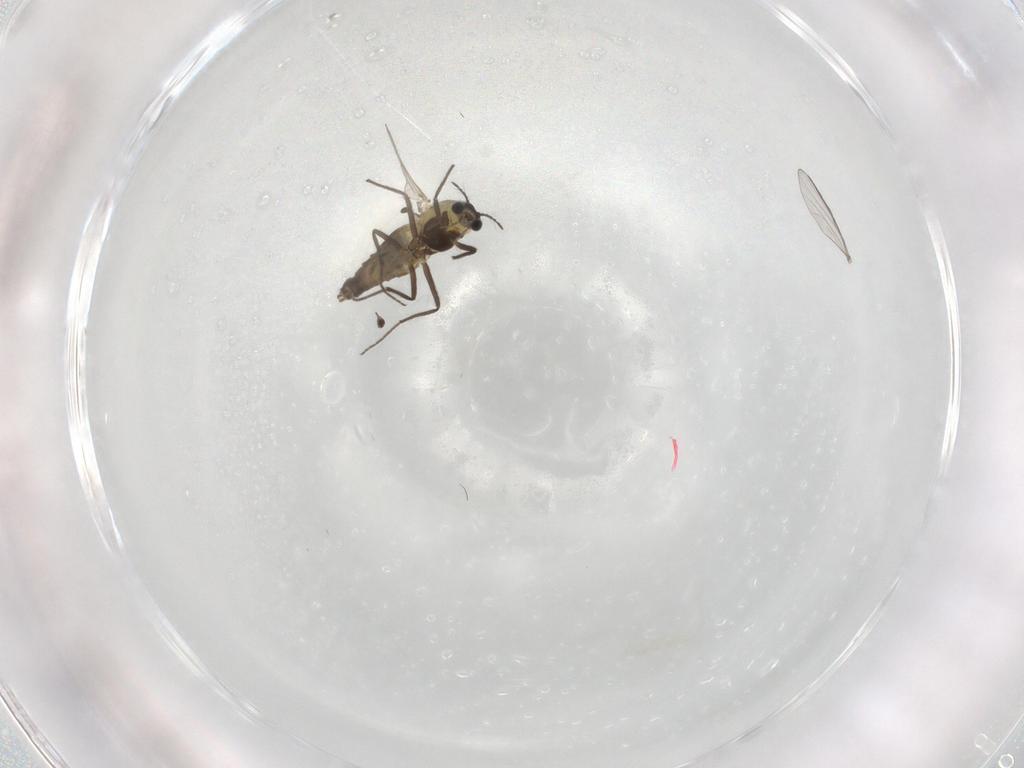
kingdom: Animalia
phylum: Arthropoda
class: Insecta
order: Diptera
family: Chironomidae
